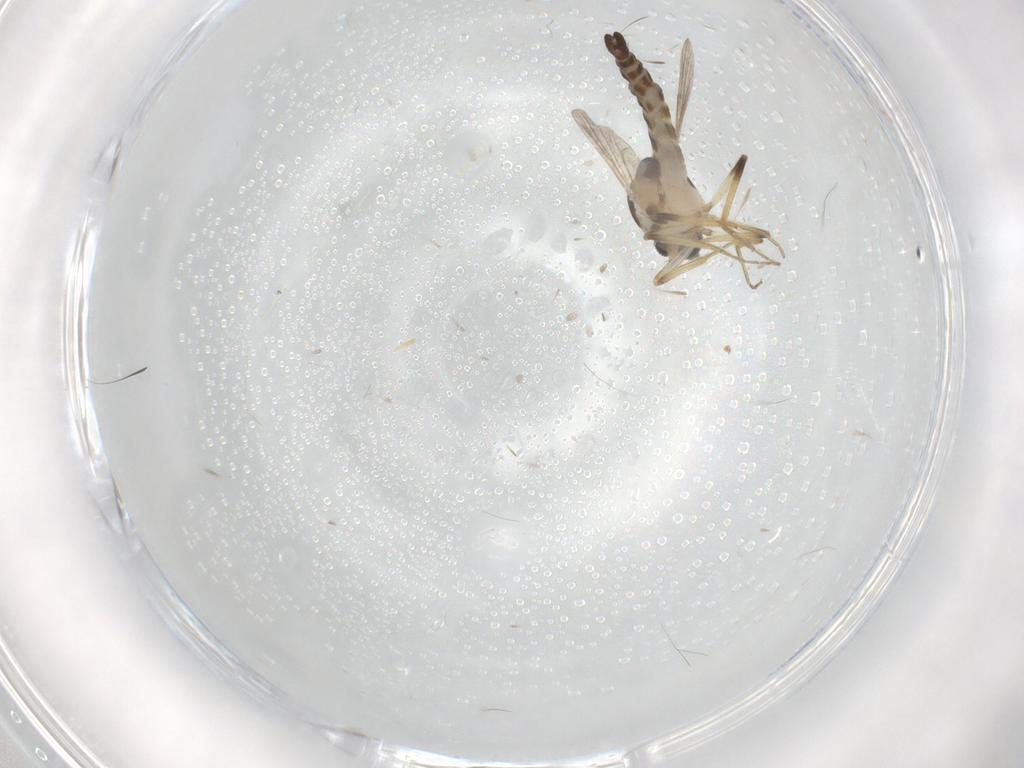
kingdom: Animalia
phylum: Arthropoda
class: Insecta
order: Diptera
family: Ceratopogonidae
